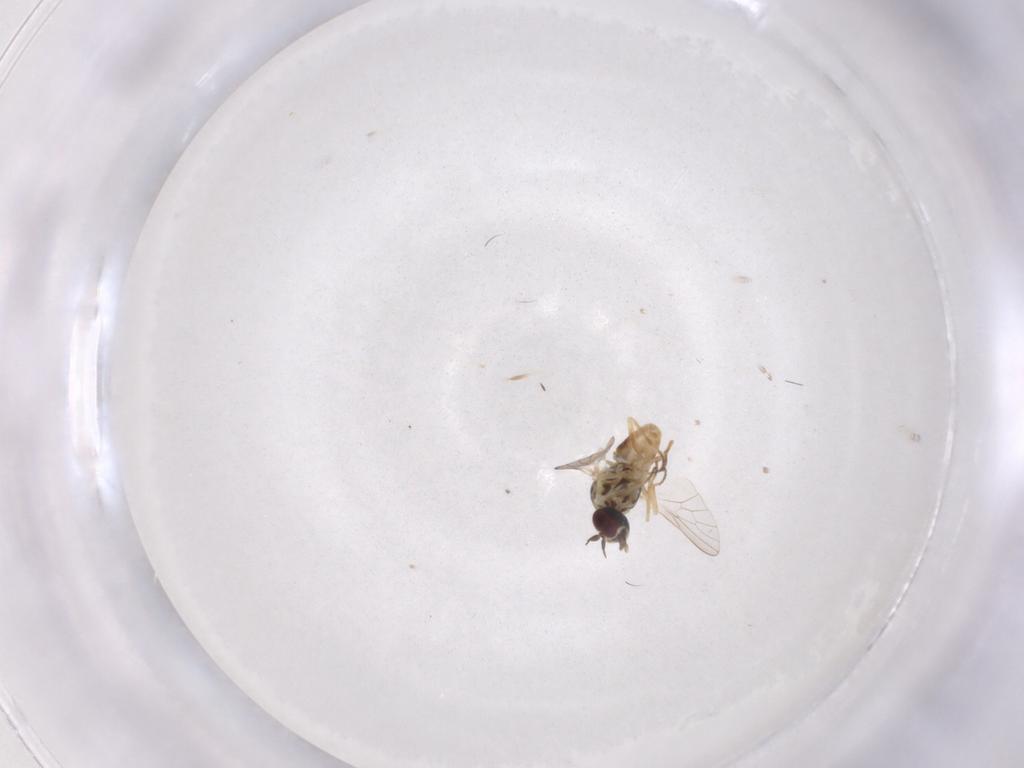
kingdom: Animalia
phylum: Arthropoda
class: Insecta
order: Diptera
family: Bombyliidae
